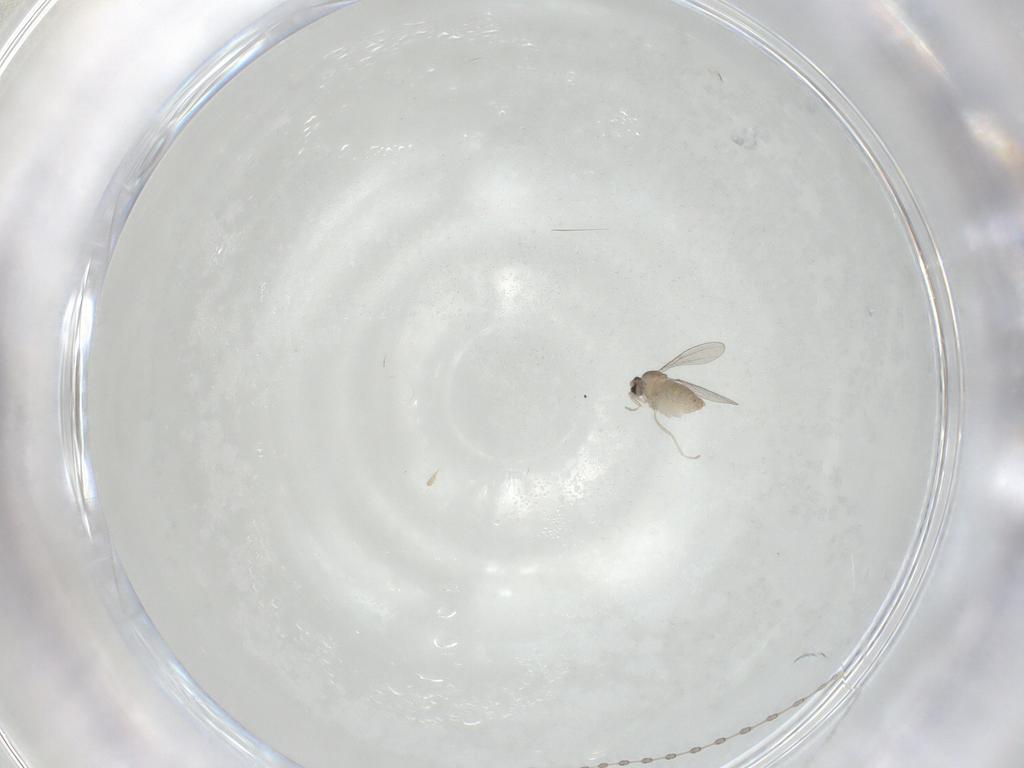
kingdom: Animalia
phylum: Arthropoda
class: Insecta
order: Diptera
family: Cecidomyiidae
